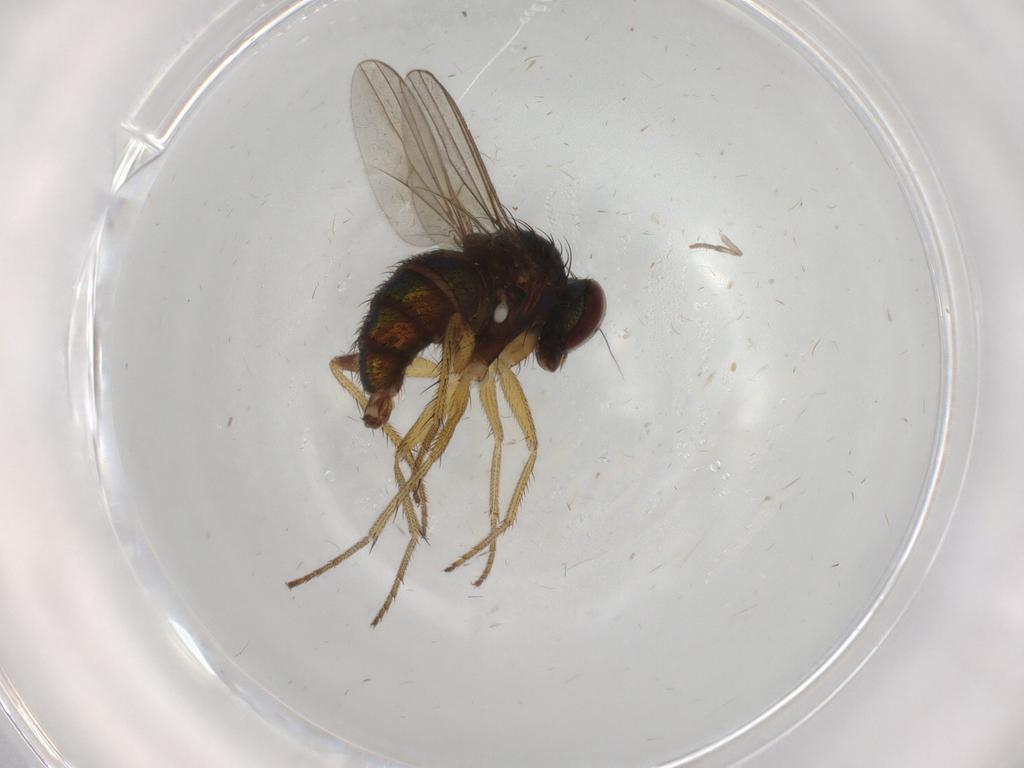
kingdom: Animalia
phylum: Arthropoda
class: Insecta
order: Diptera
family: Dolichopodidae
